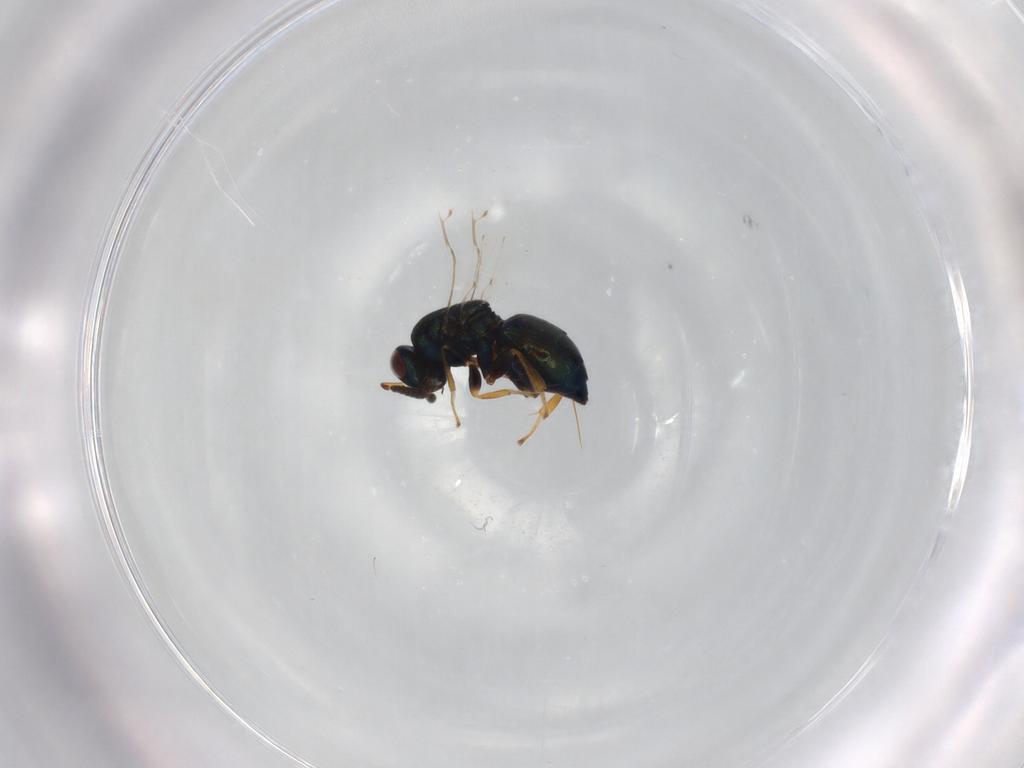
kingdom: Animalia
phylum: Arthropoda
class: Insecta
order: Hymenoptera
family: Pteromalidae
